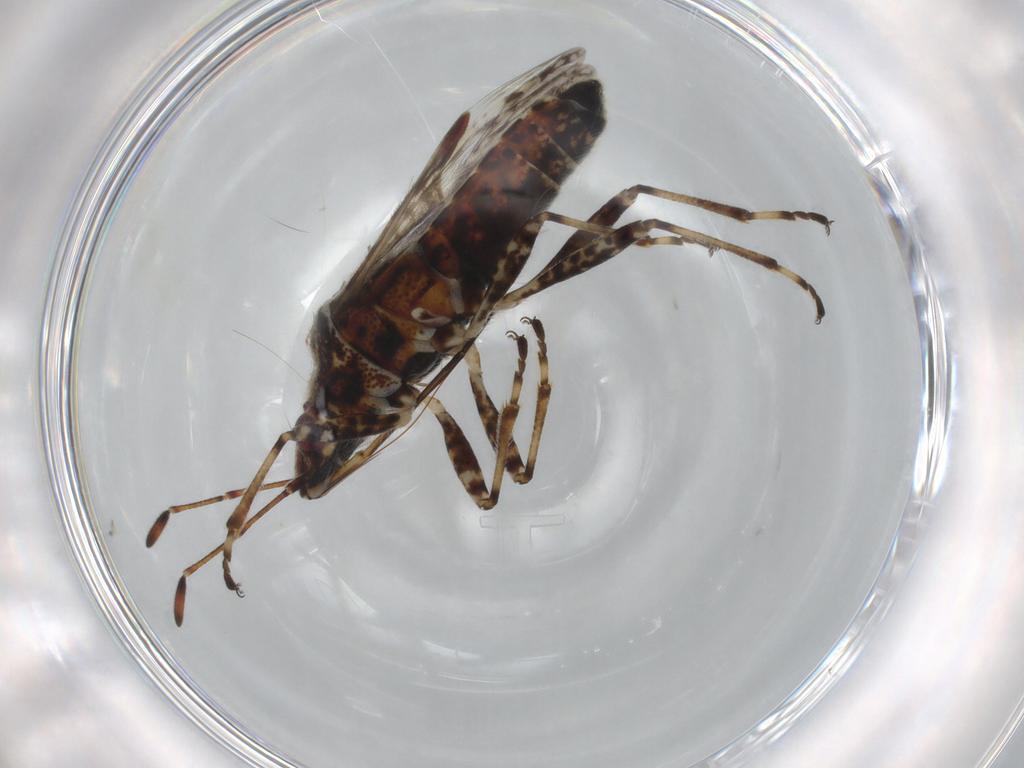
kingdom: Animalia
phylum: Arthropoda
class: Insecta
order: Hemiptera
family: Lygaeidae
